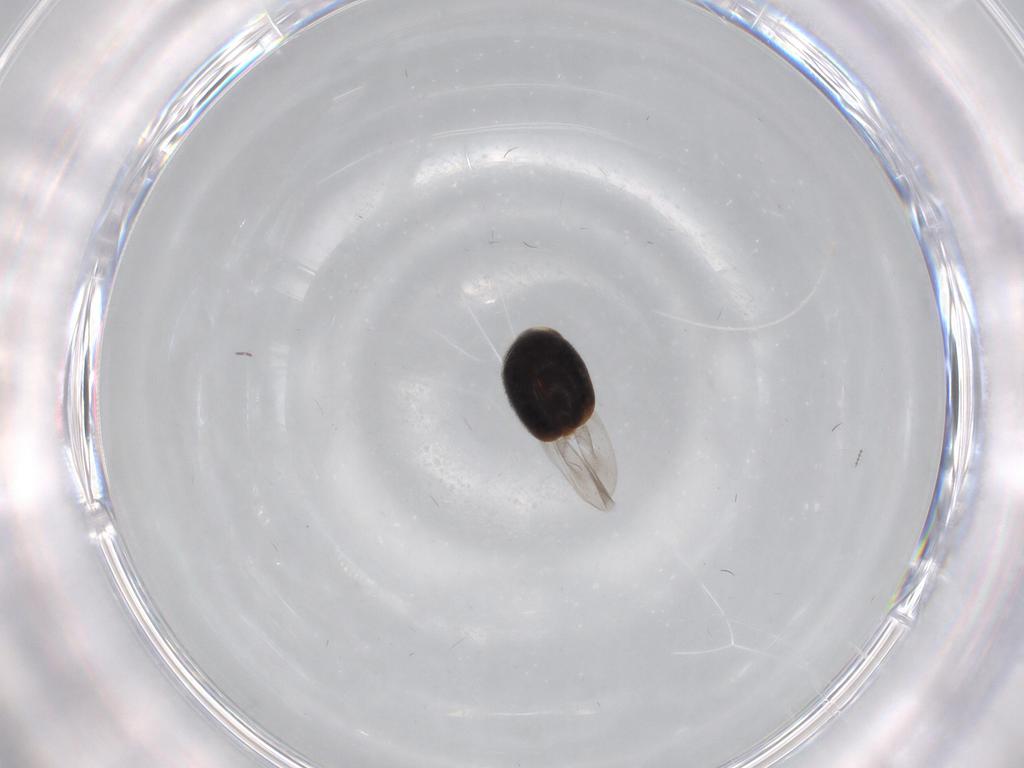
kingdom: Animalia
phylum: Arthropoda
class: Insecta
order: Coleoptera
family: Corylophidae
